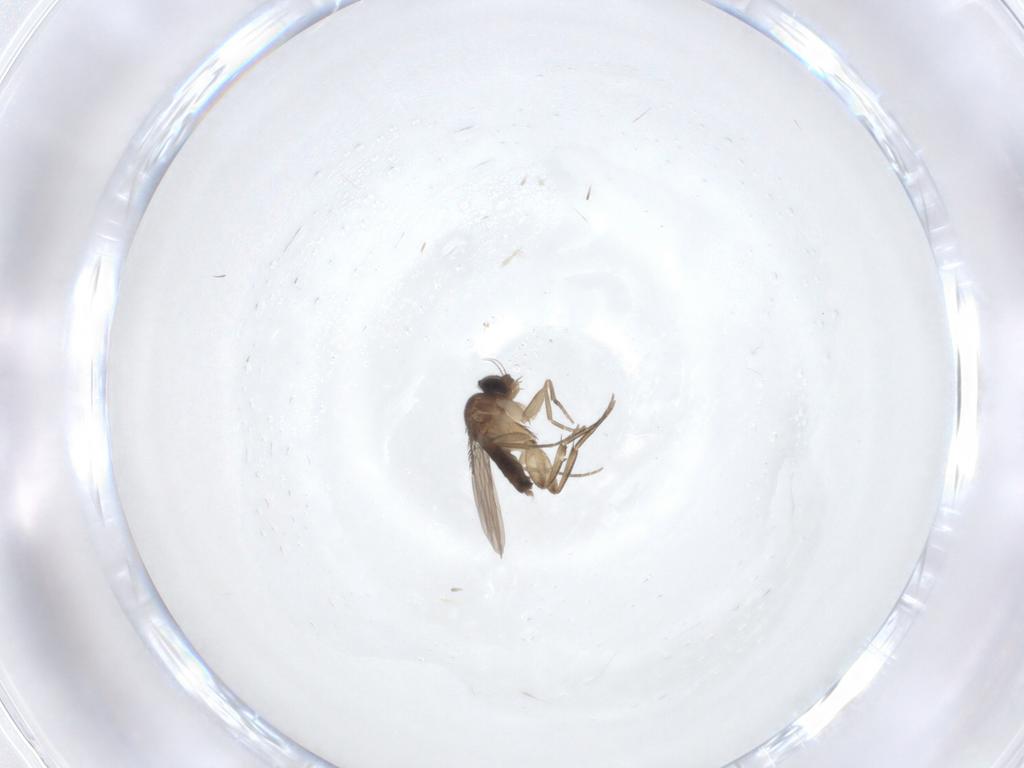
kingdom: Animalia
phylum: Arthropoda
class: Insecta
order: Diptera
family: Phoridae
